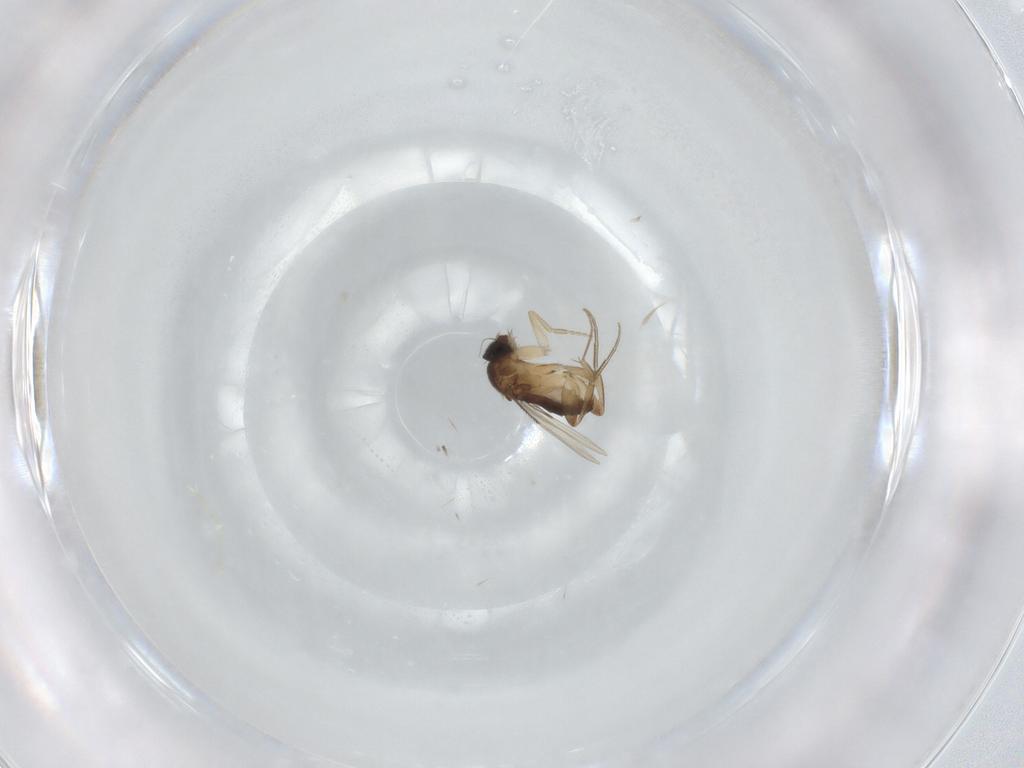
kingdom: Animalia
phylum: Arthropoda
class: Insecta
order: Diptera
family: Phoridae
